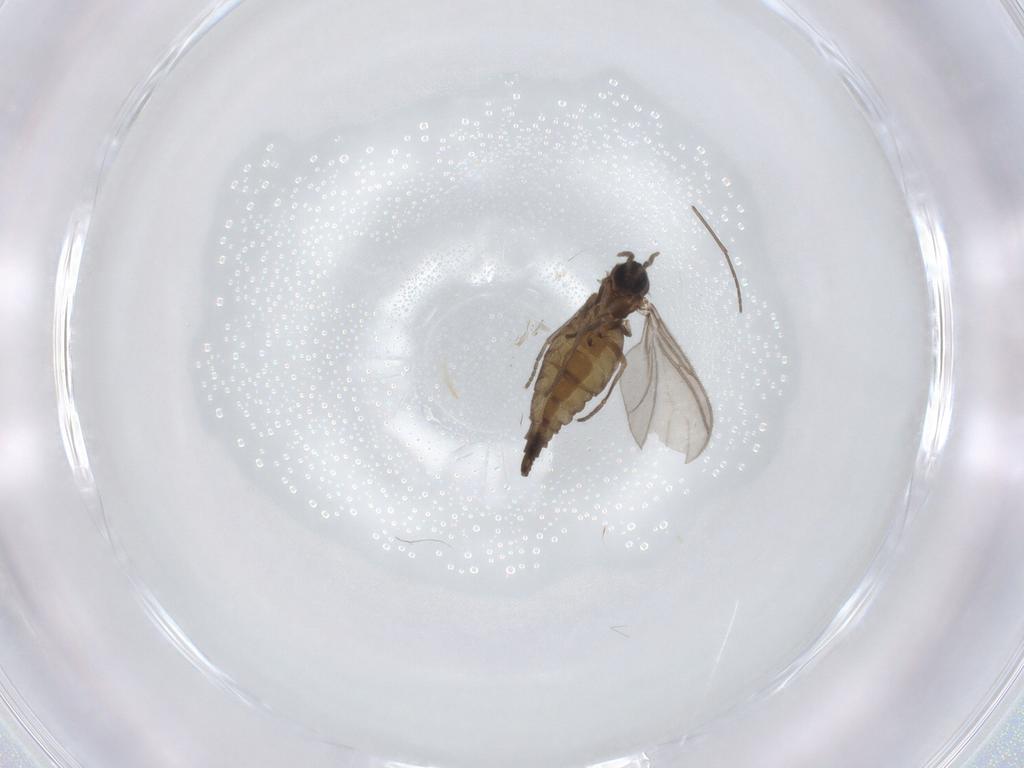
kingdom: Animalia
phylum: Arthropoda
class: Insecta
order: Diptera
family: Sciaridae
